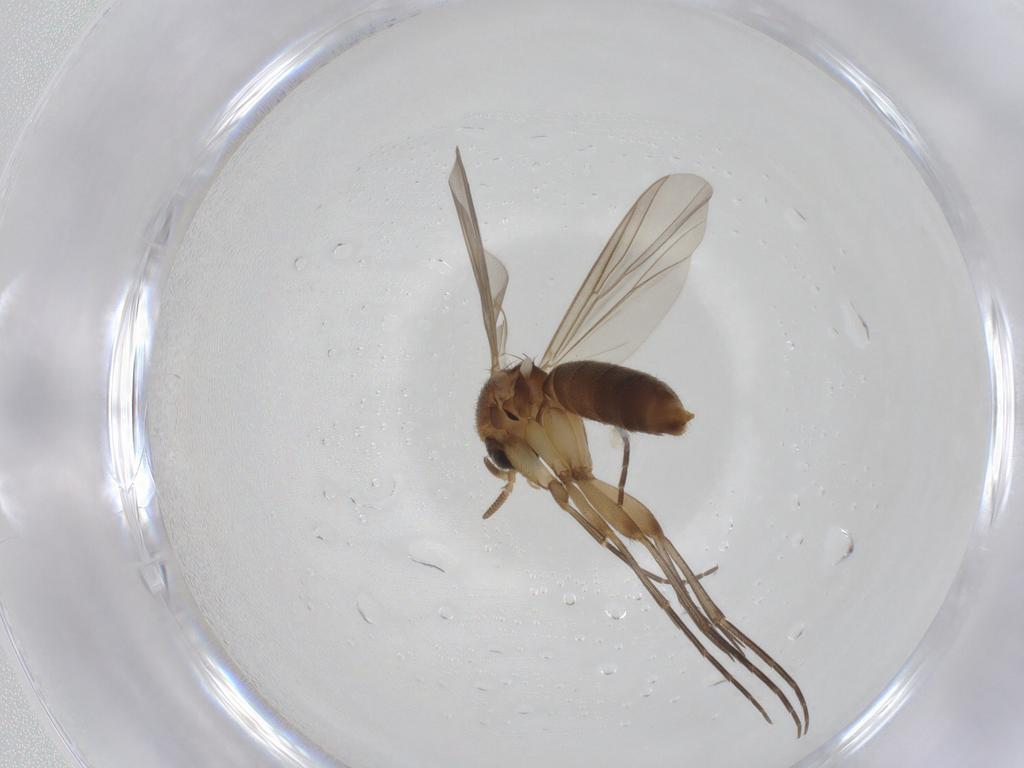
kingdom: Animalia
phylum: Arthropoda
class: Insecta
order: Diptera
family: Mycetophilidae
